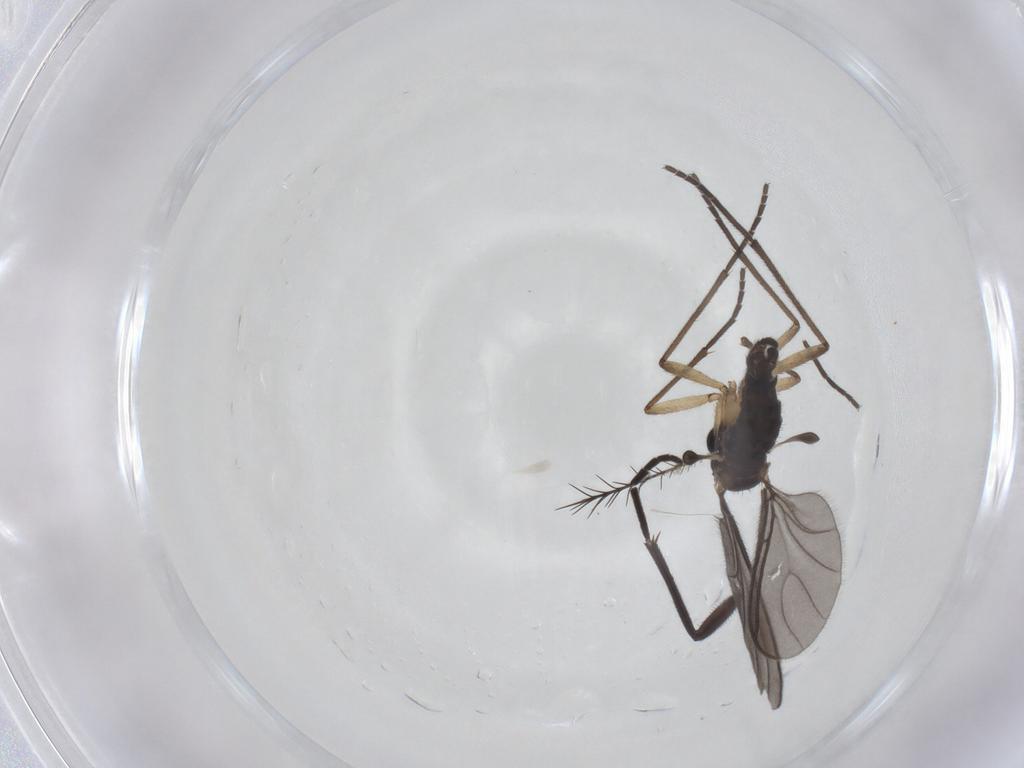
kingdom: Animalia
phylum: Arthropoda
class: Insecta
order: Diptera
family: Sciaridae
